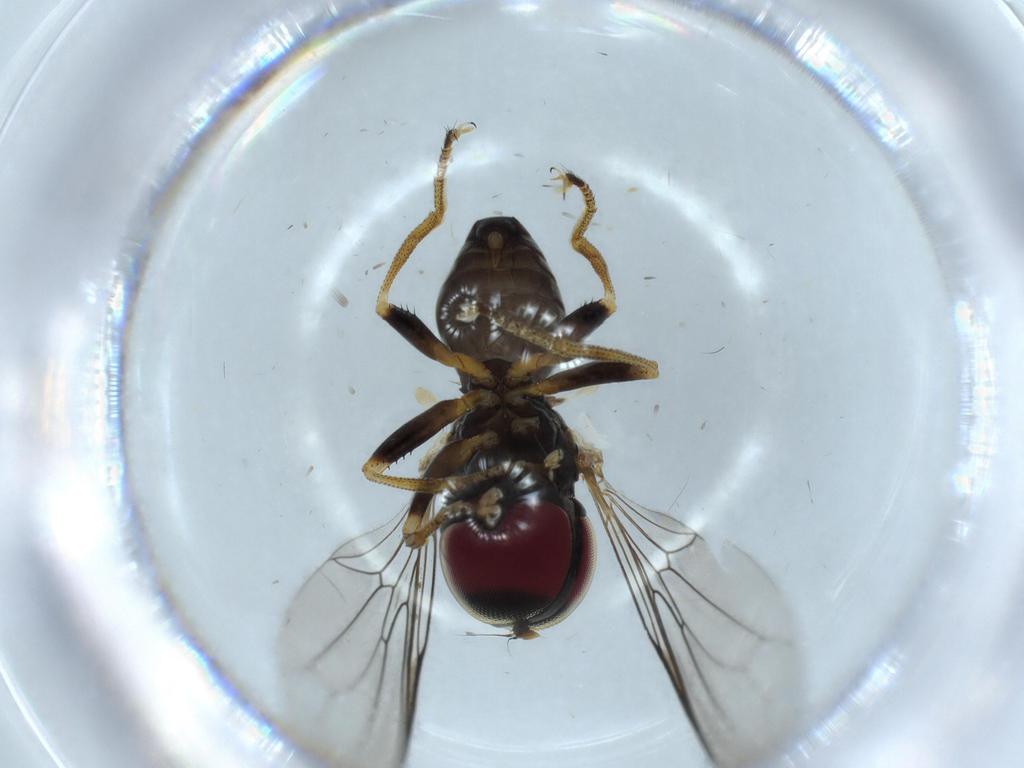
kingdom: Animalia
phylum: Arthropoda
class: Insecta
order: Diptera
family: Pipunculidae
